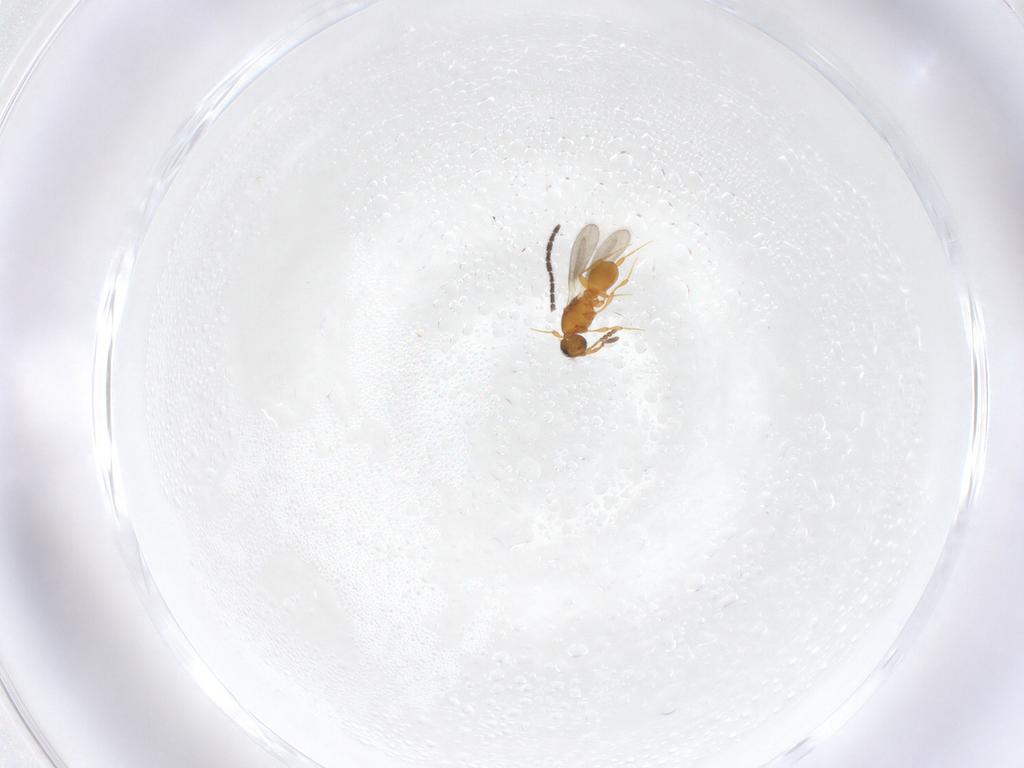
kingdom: Animalia
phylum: Arthropoda
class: Insecta
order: Hymenoptera
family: Platygastridae
